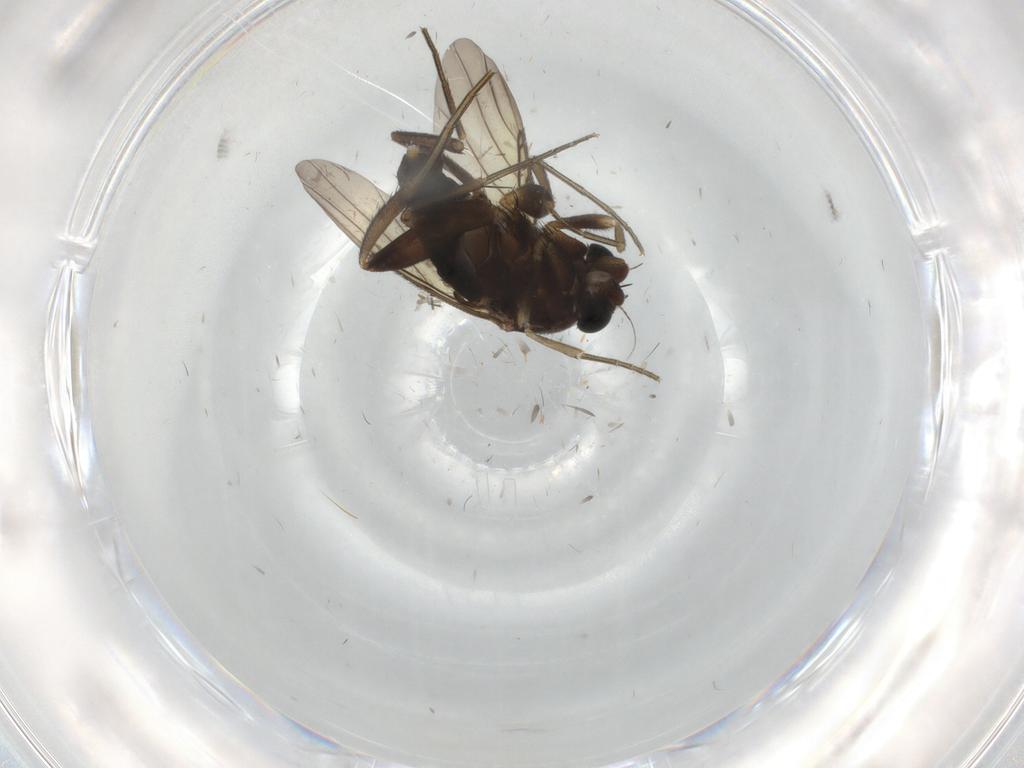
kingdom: Animalia
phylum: Arthropoda
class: Insecta
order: Diptera
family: Phoridae
